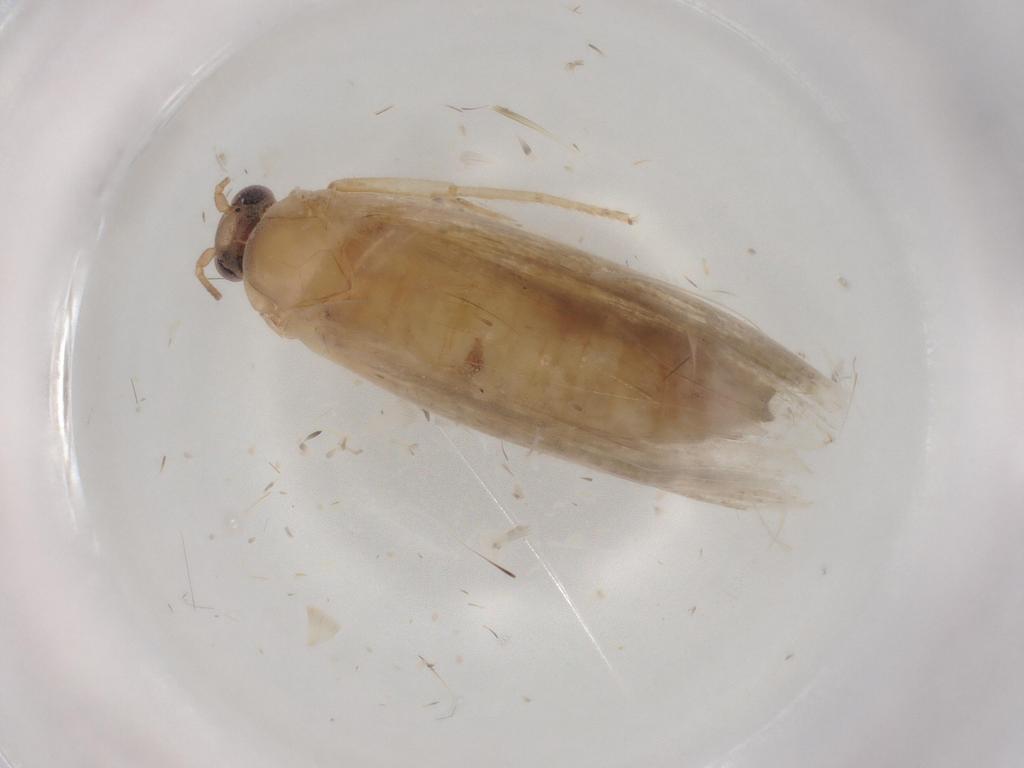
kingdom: Animalia
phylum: Arthropoda
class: Insecta
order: Lepidoptera
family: Tortricidae
